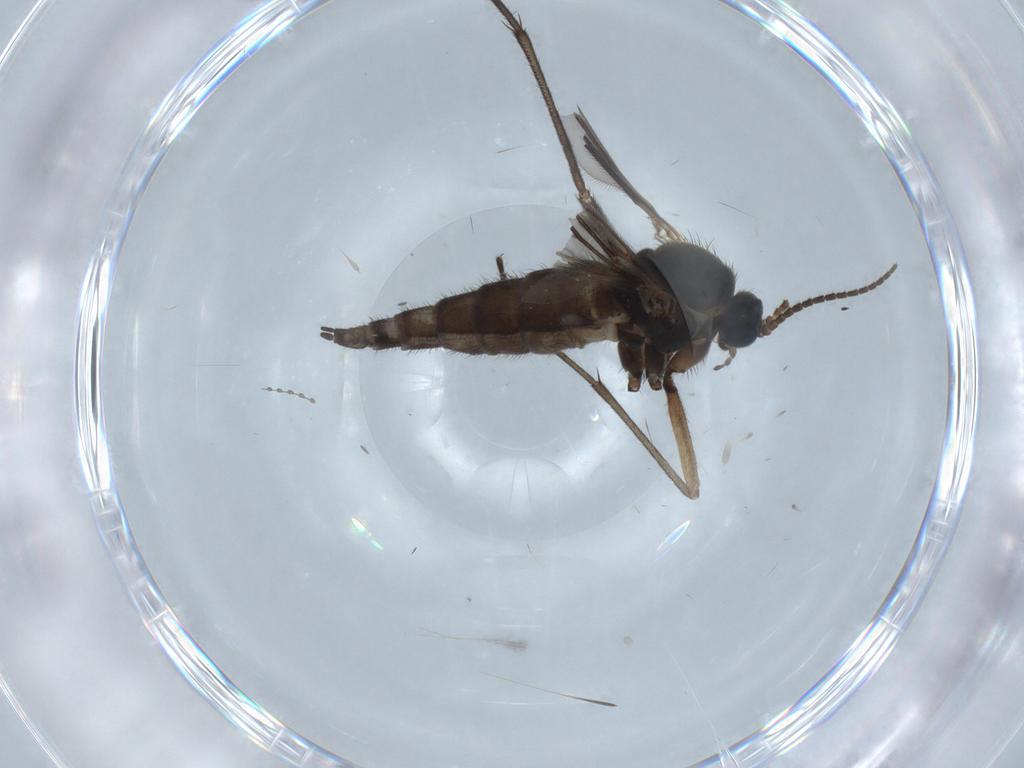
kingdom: Animalia
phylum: Arthropoda
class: Insecta
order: Diptera
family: Sciaridae
